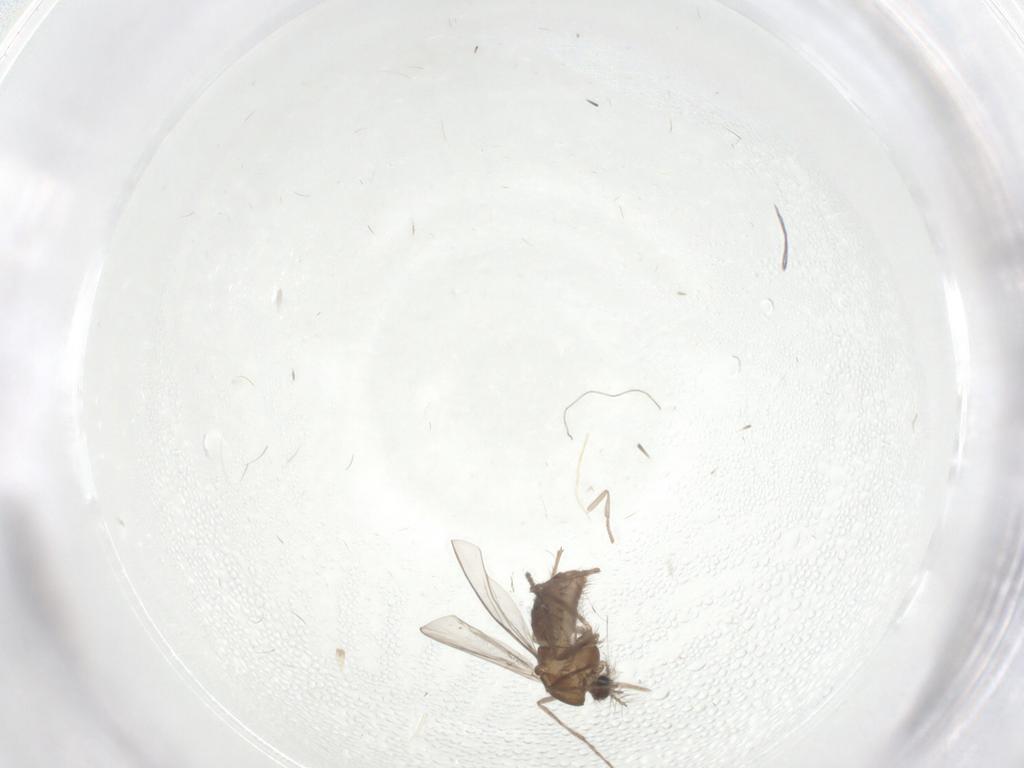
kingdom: Animalia
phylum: Arthropoda
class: Insecta
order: Diptera
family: Chironomidae
